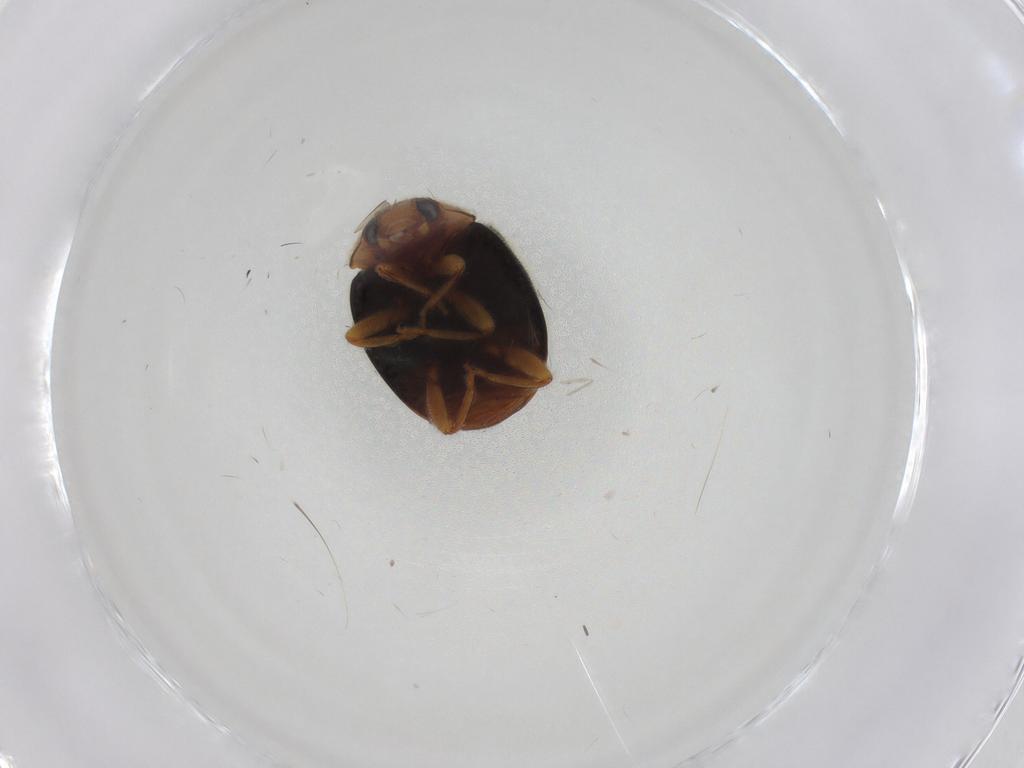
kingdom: Animalia
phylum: Arthropoda
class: Insecta
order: Coleoptera
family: Coccinellidae
